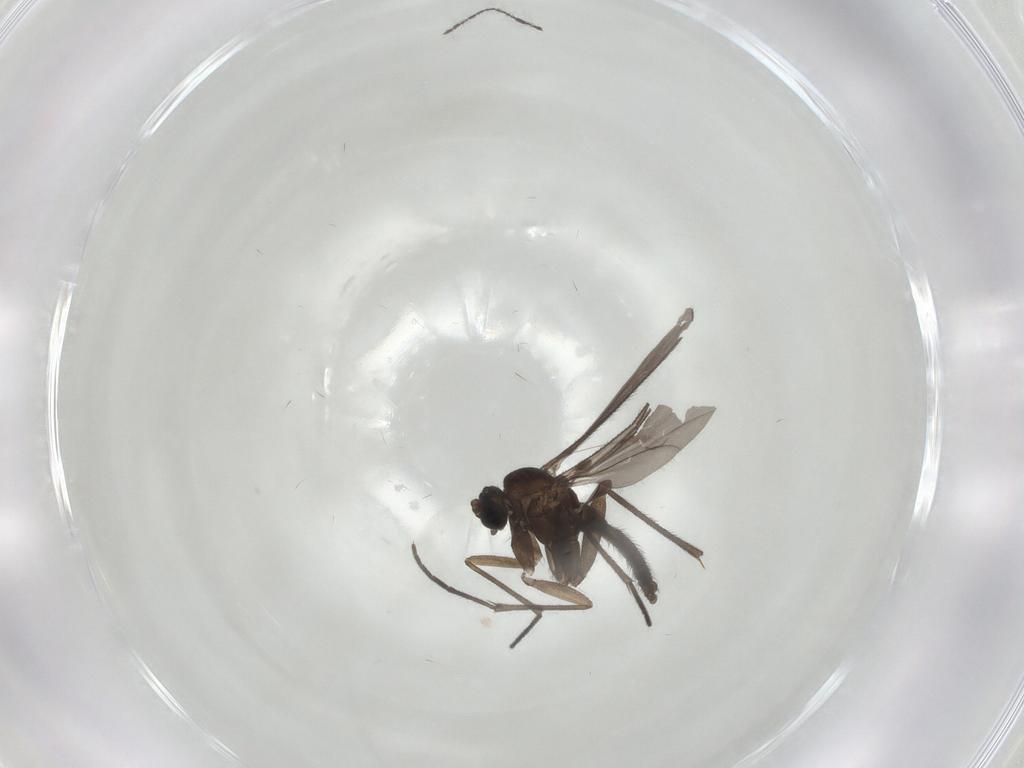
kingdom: Animalia
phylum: Arthropoda
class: Insecta
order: Diptera
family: Sciaridae
